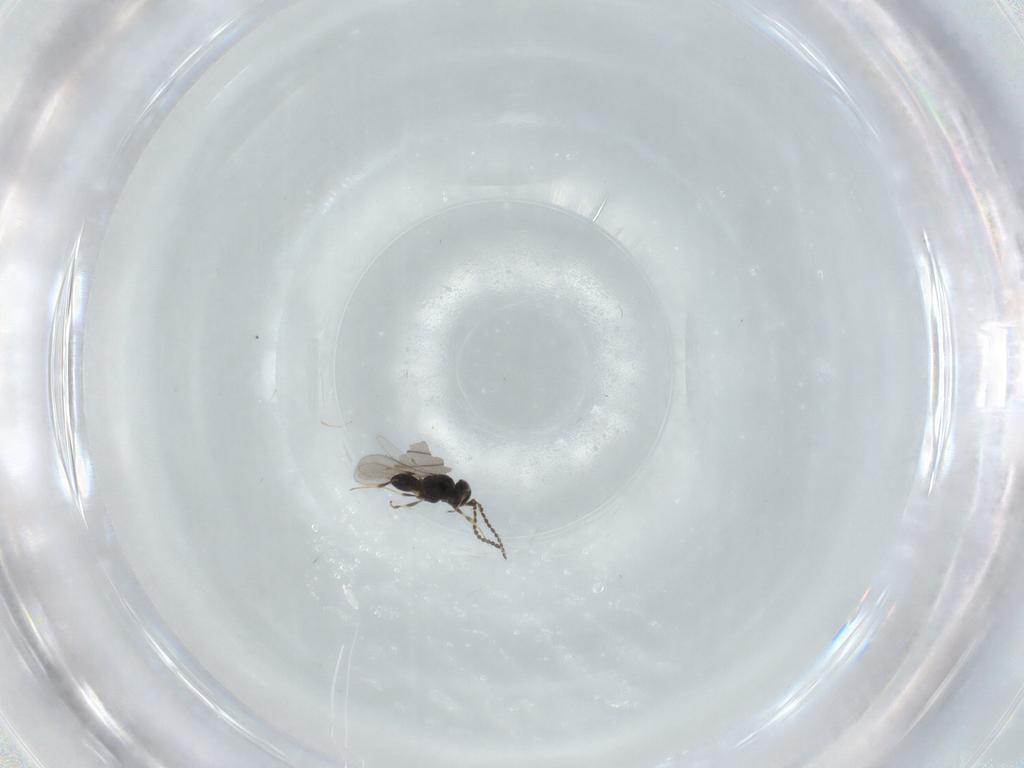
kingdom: Animalia
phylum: Arthropoda
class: Insecta
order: Hymenoptera
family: Scelionidae
